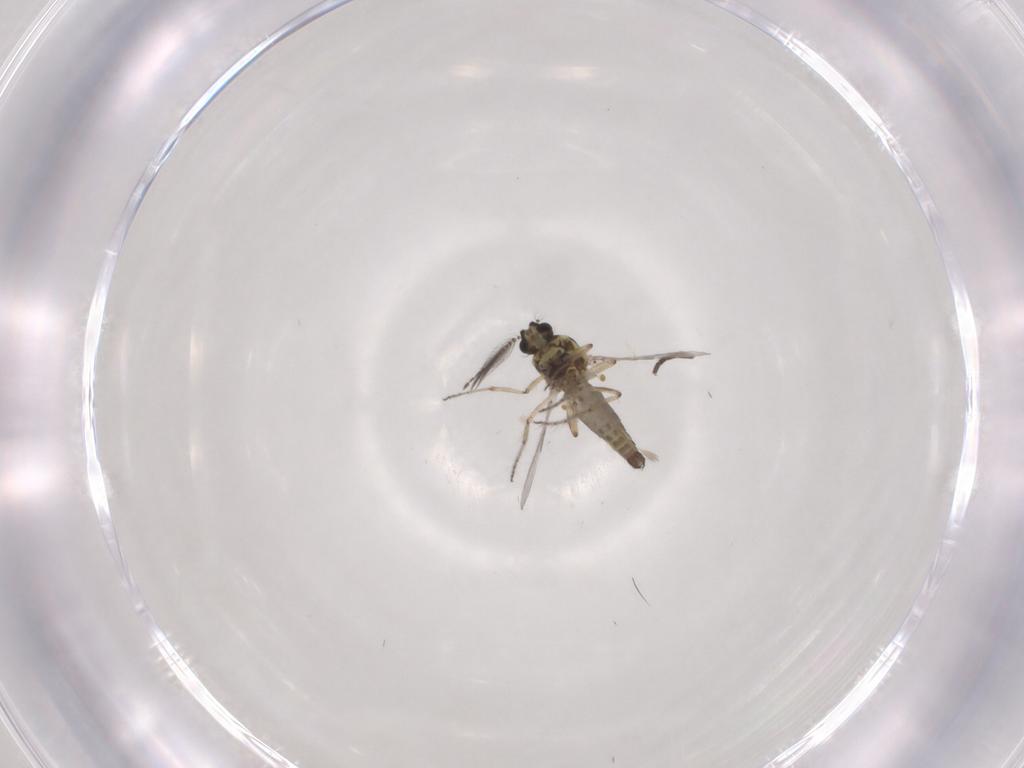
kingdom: Animalia
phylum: Arthropoda
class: Insecta
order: Diptera
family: Ceratopogonidae
